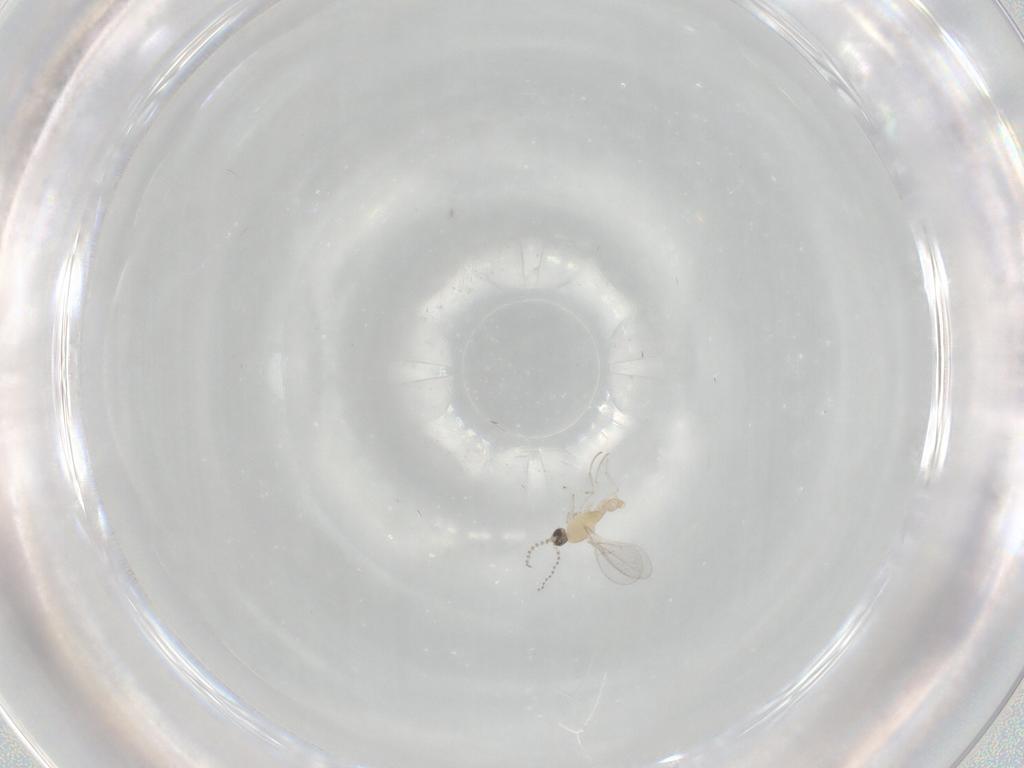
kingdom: Animalia
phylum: Arthropoda
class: Insecta
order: Diptera
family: Cecidomyiidae
